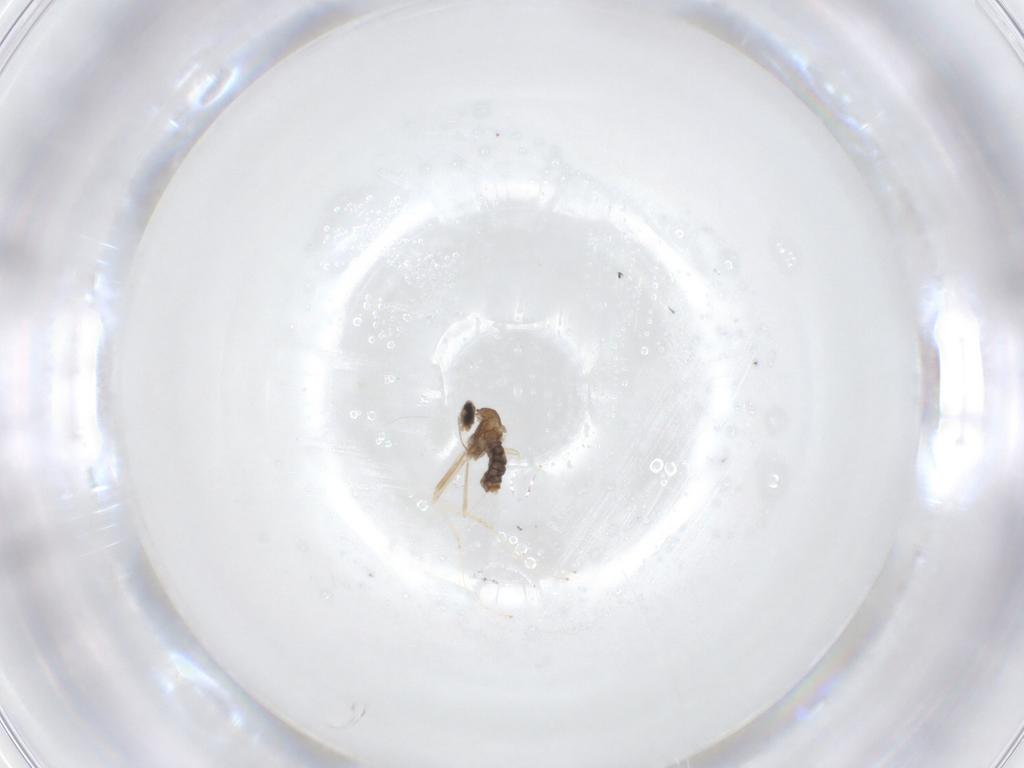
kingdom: Animalia
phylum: Arthropoda
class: Insecta
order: Diptera
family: Cecidomyiidae
